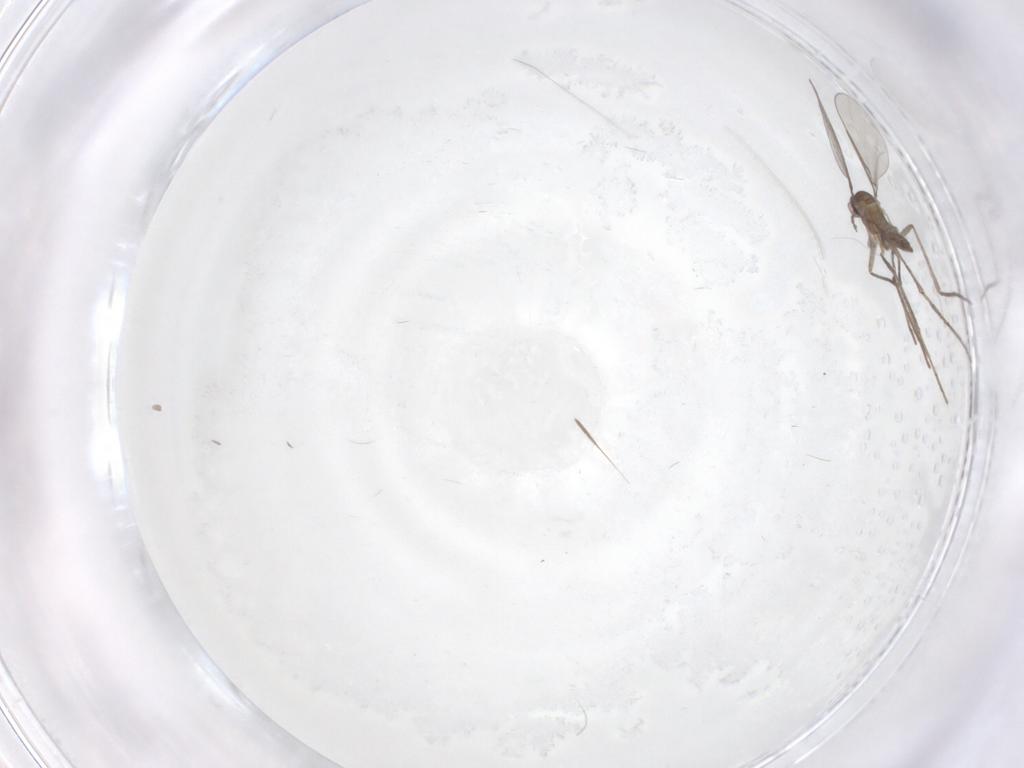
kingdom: Animalia
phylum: Arthropoda
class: Insecta
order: Diptera
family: Cecidomyiidae
